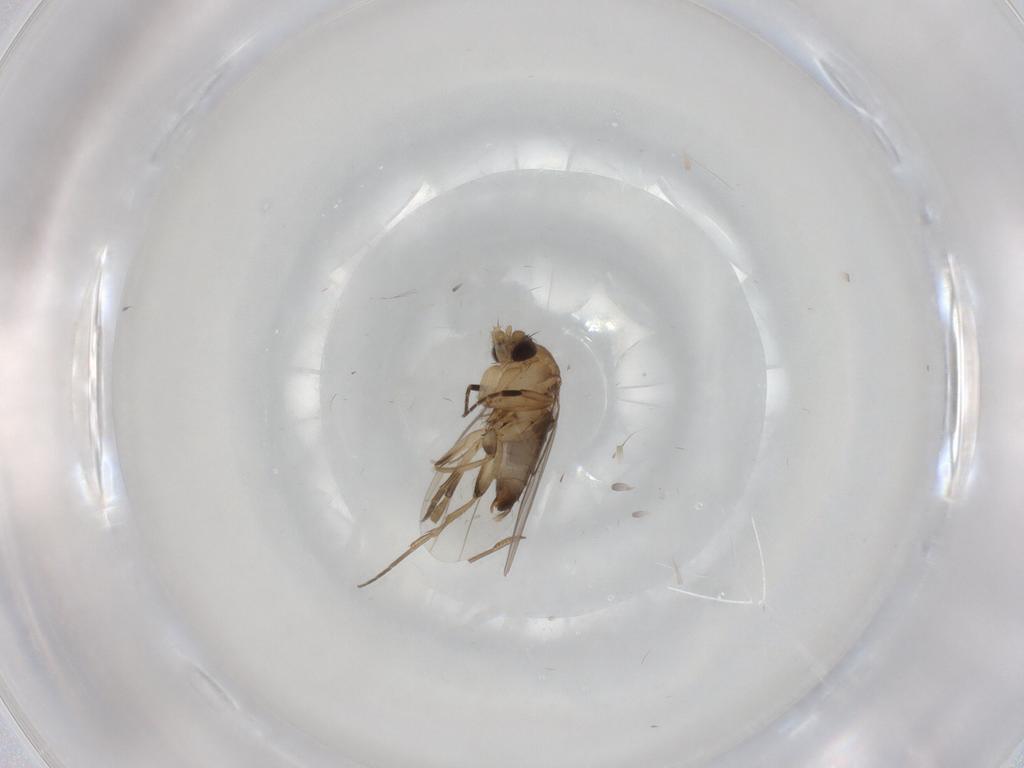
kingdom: Animalia
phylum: Arthropoda
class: Insecta
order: Diptera
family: Phoridae
